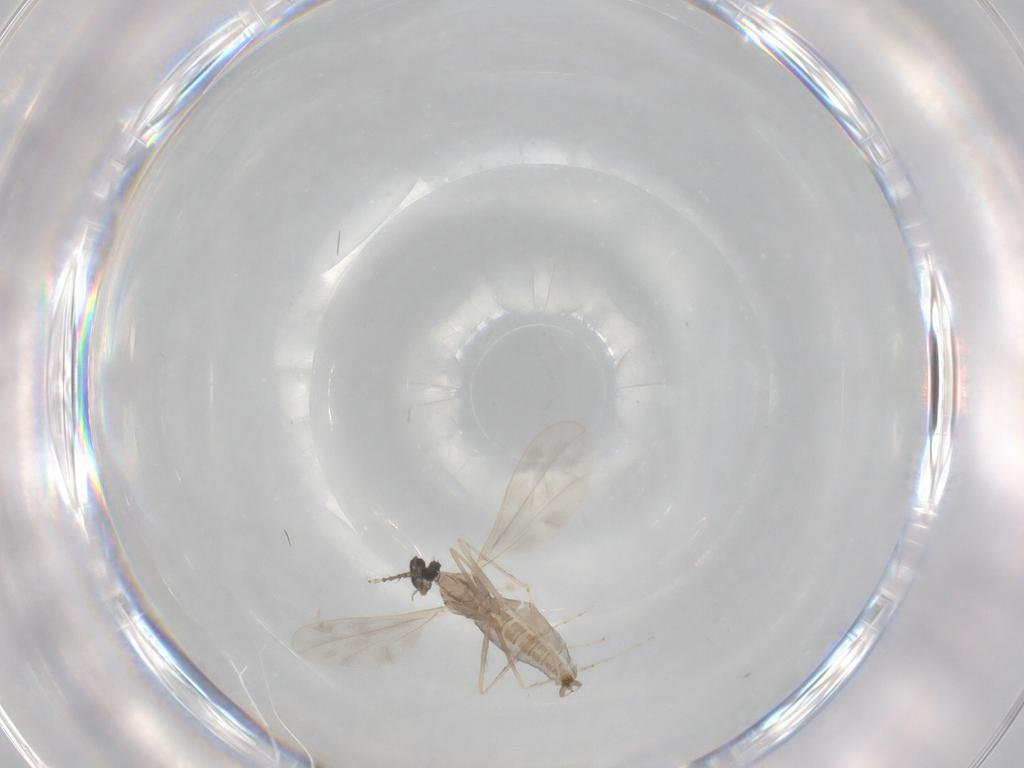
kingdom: Animalia
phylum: Arthropoda
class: Insecta
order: Diptera
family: Cecidomyiidae
